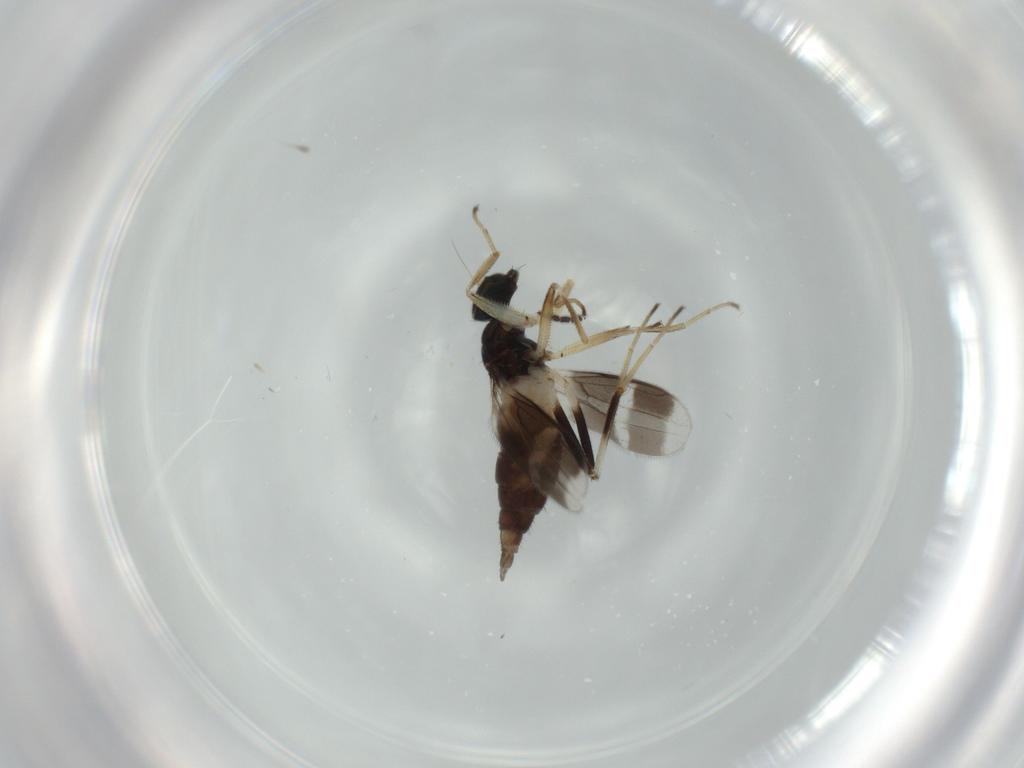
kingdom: Animalia
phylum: Arthropoda
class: Insecta
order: Diptera
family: Hybotidae
